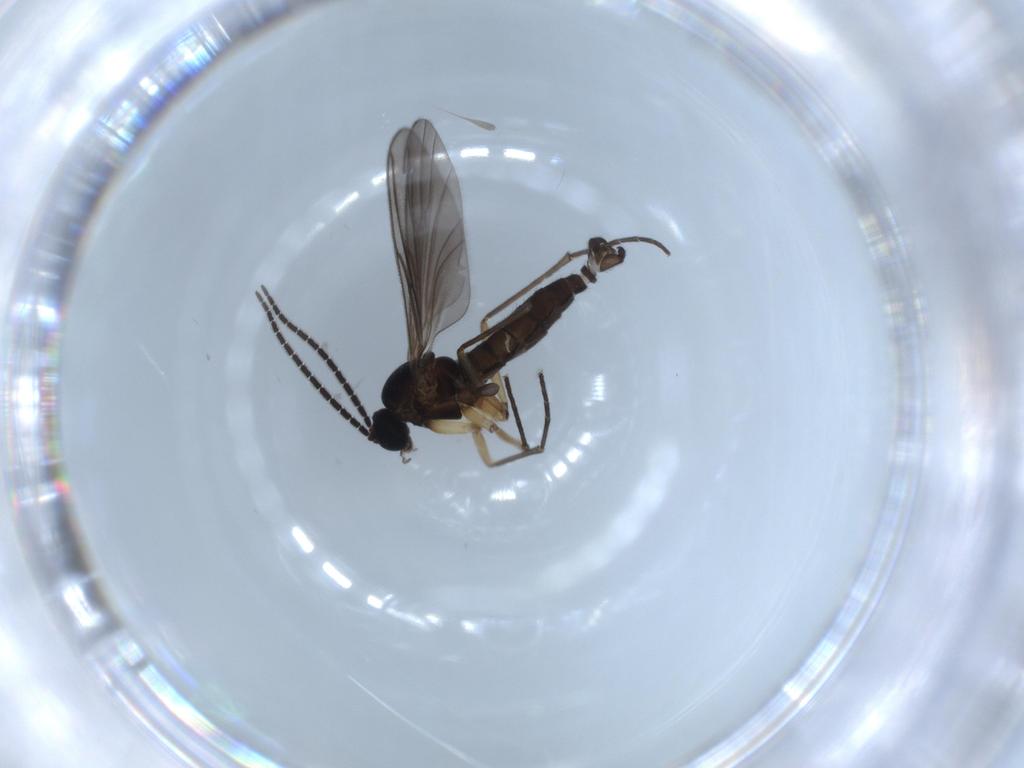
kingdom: Animalia
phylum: Arthropoda
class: Insecta
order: Diptera
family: Sciaridae
